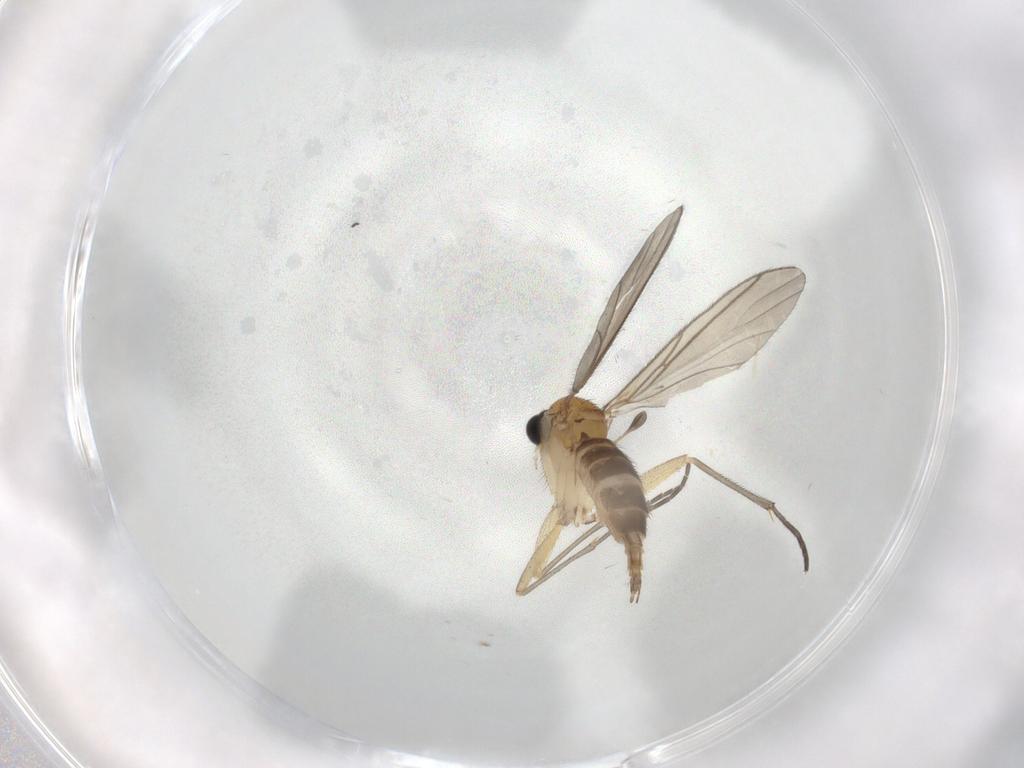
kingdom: Animalia
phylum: Arthropoda
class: Insecta
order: Diptera
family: Sciaridae
